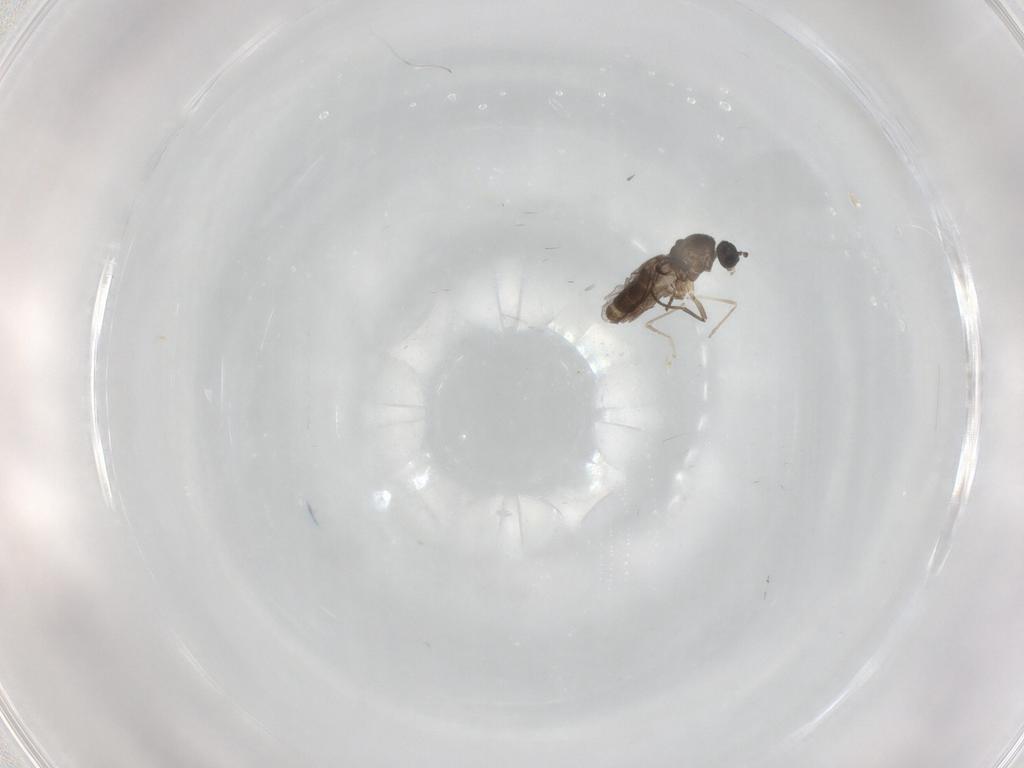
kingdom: Animalia
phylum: Arthropoda
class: Insecta
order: Diptera
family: Sciaridae
